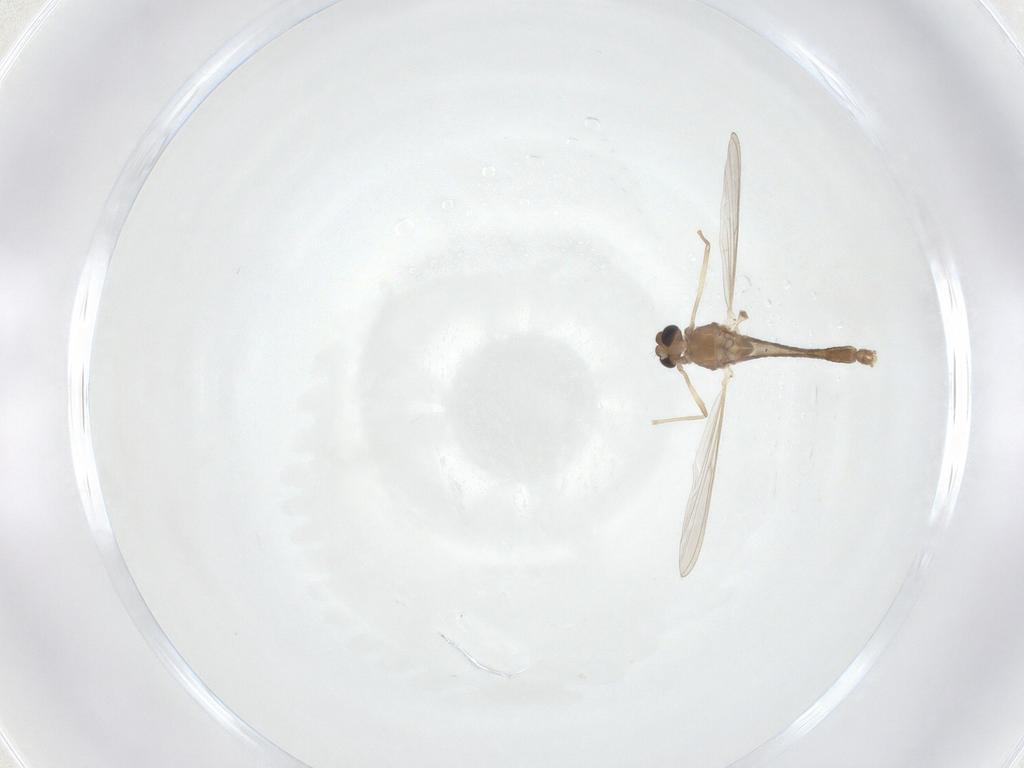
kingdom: Animalia
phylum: Arthropoda
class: Insecta
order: Diptera
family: Chironomidae
